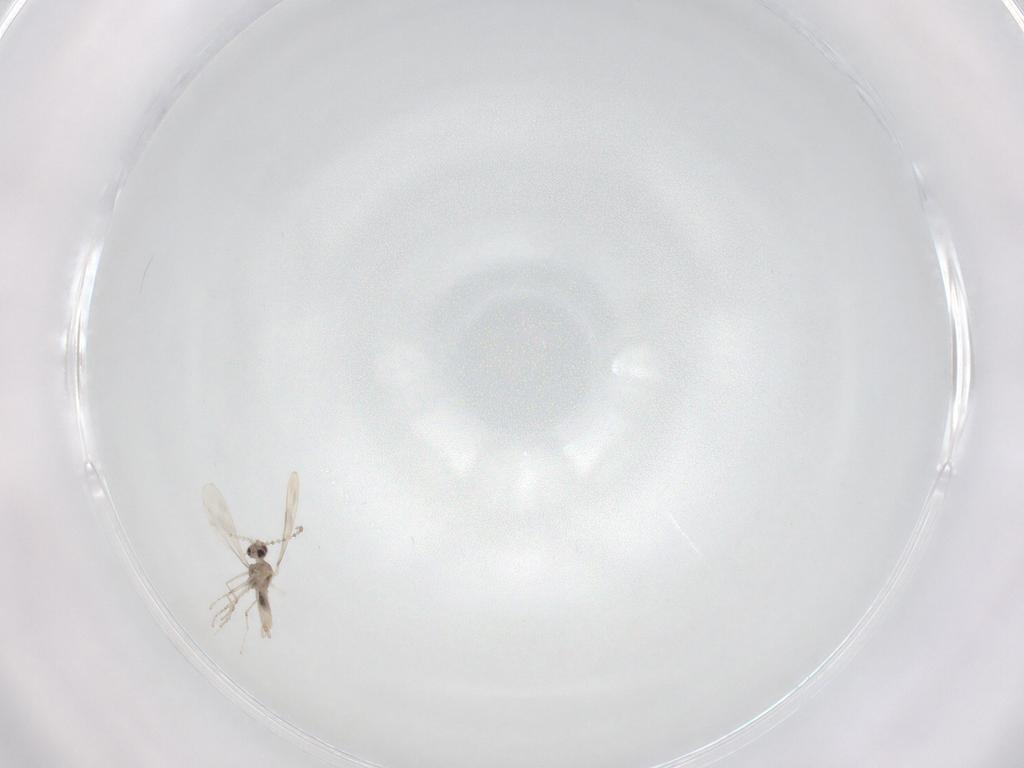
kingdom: Animalia
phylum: Arthropoda
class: Insecta
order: Diptera
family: Cecidomyiidae
